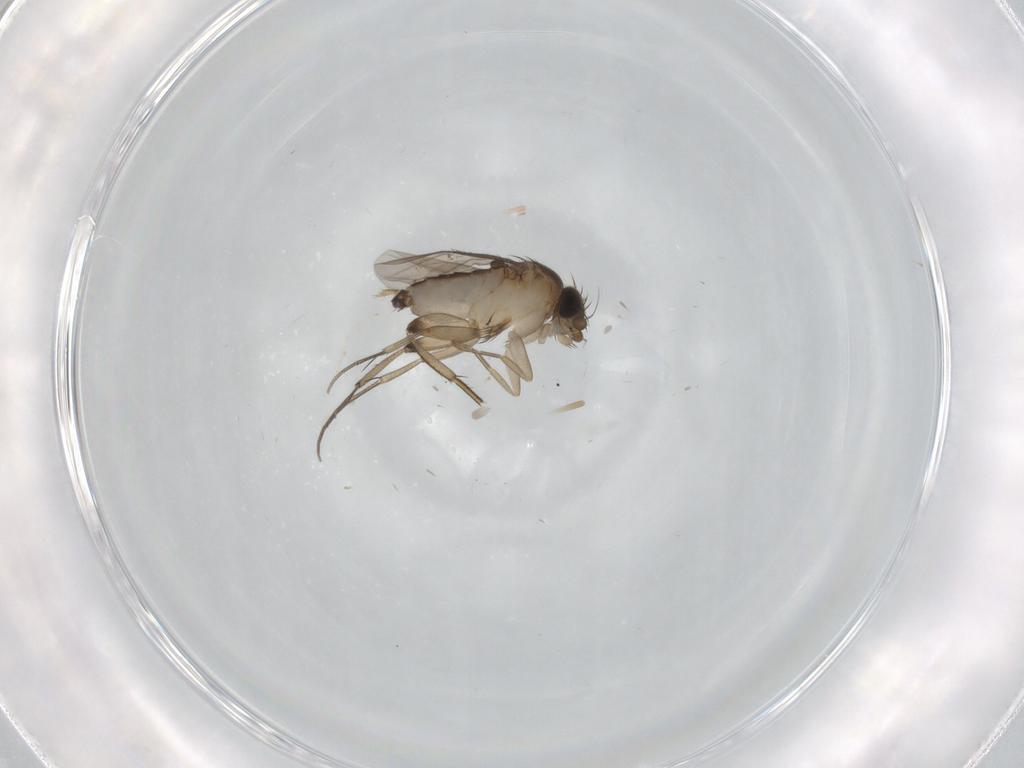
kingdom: Animalia
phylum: Arthropoda
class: Insecta
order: Diptera
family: Phoridae
